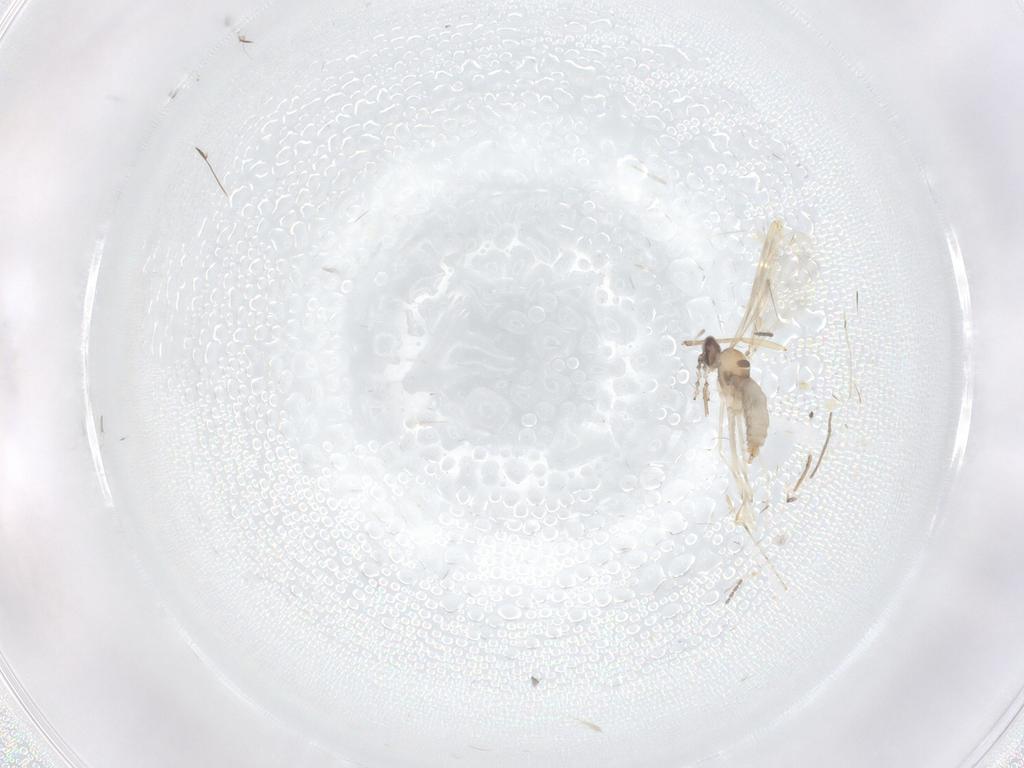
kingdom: Animalia
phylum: Arthropoda
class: Insecta
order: Diptera
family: Cecidomyiidae
